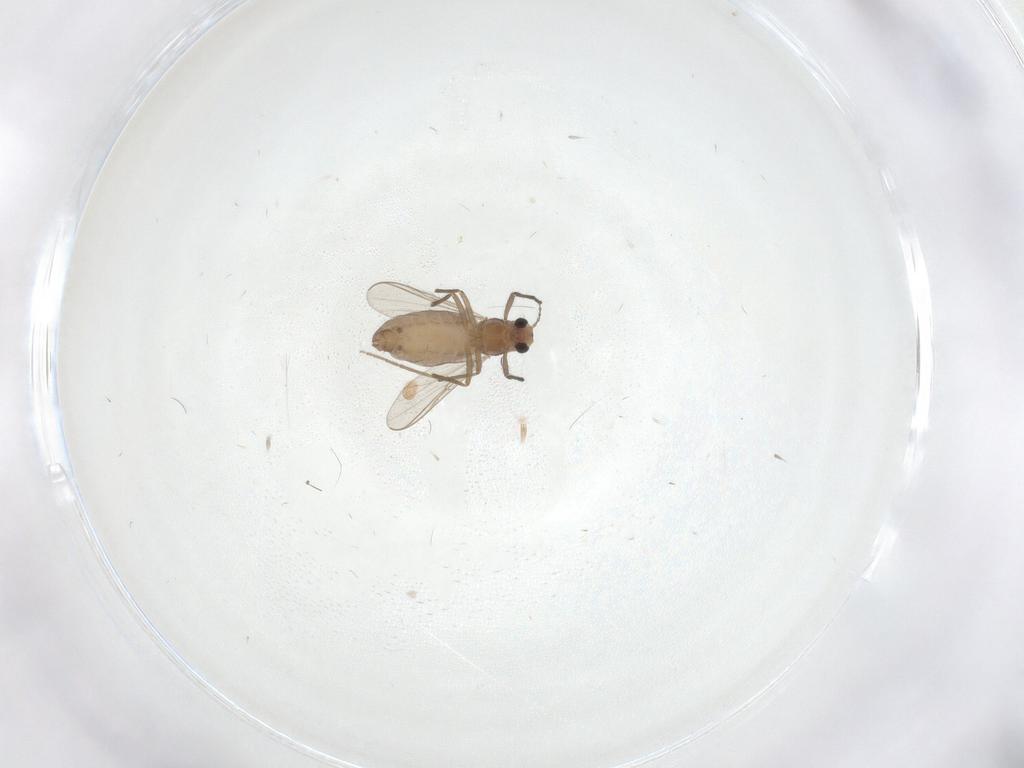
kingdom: Animalia
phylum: Arthropoda
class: Insecta
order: Diptera
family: Chironomidae
